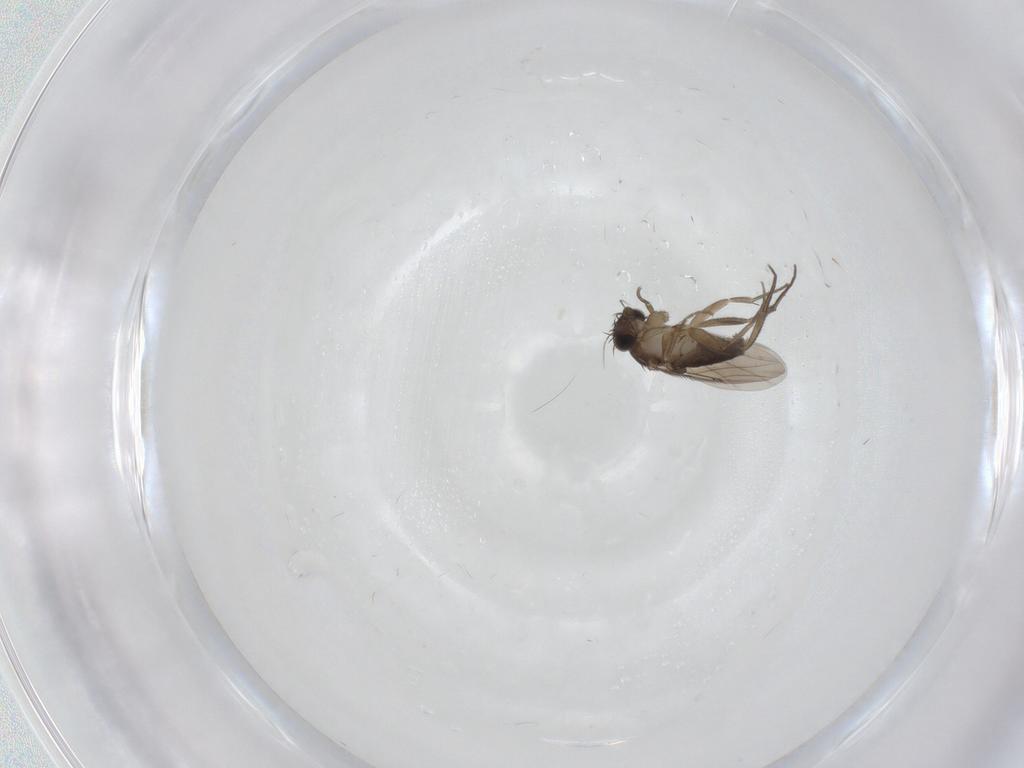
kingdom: Animalia
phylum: Arthropoda
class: Insecta
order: Diptera
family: Phoridae
